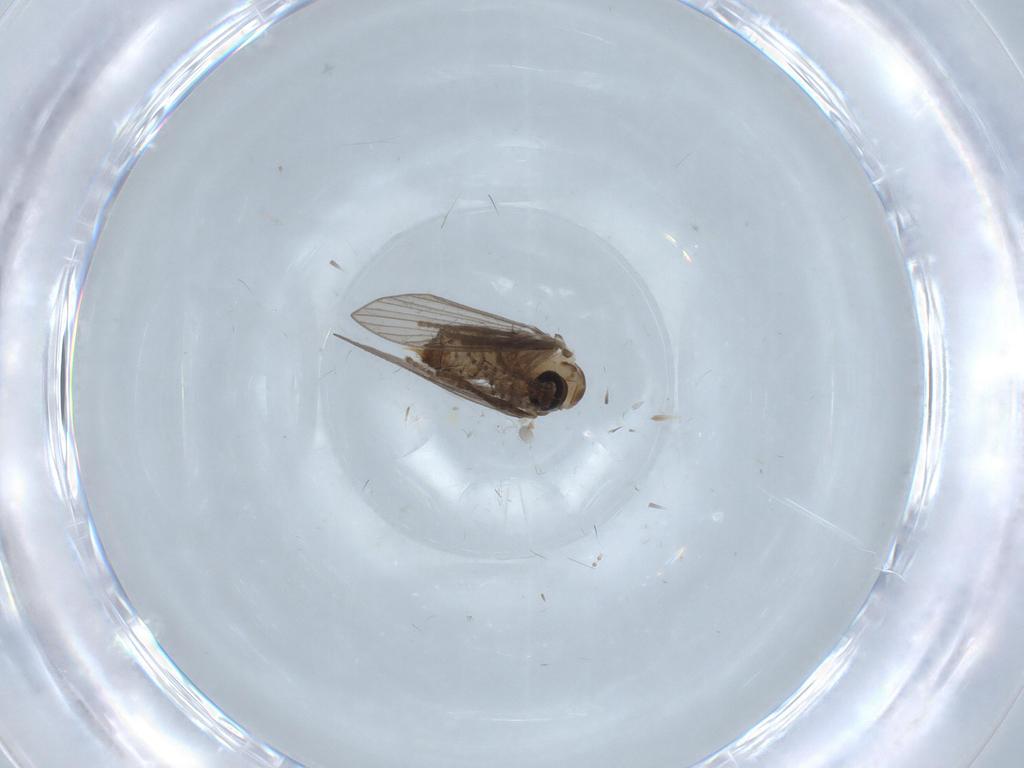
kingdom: Animalia
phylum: Arthropoda
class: Insecta
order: Diptera
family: Psychodidae
